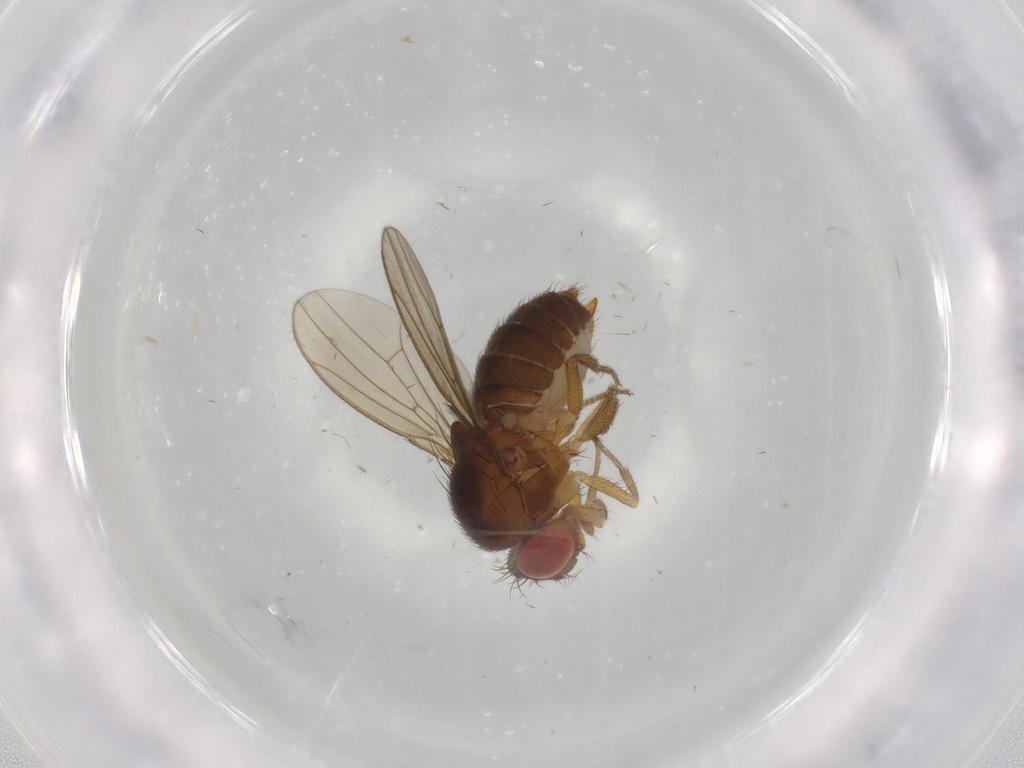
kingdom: Animalia
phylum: Arthropoda
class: Insecta
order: Diptera
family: Drosophilidae
